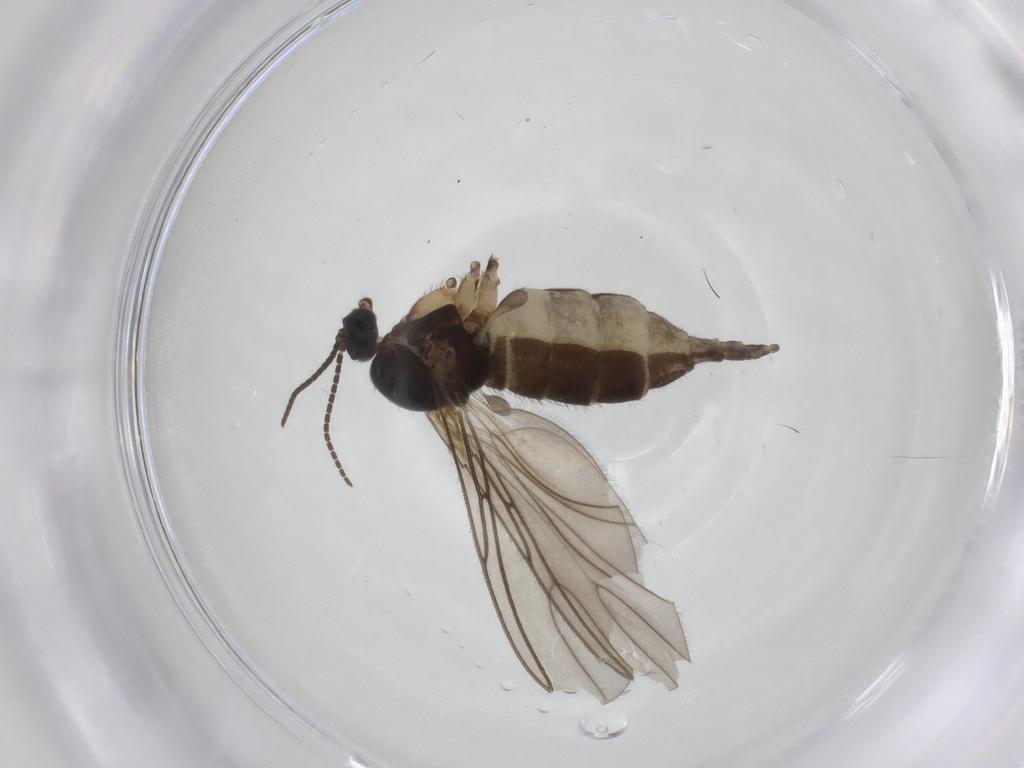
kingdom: Animalia
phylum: Arthropoda
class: Insecta
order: Diptera
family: Sciaridae
